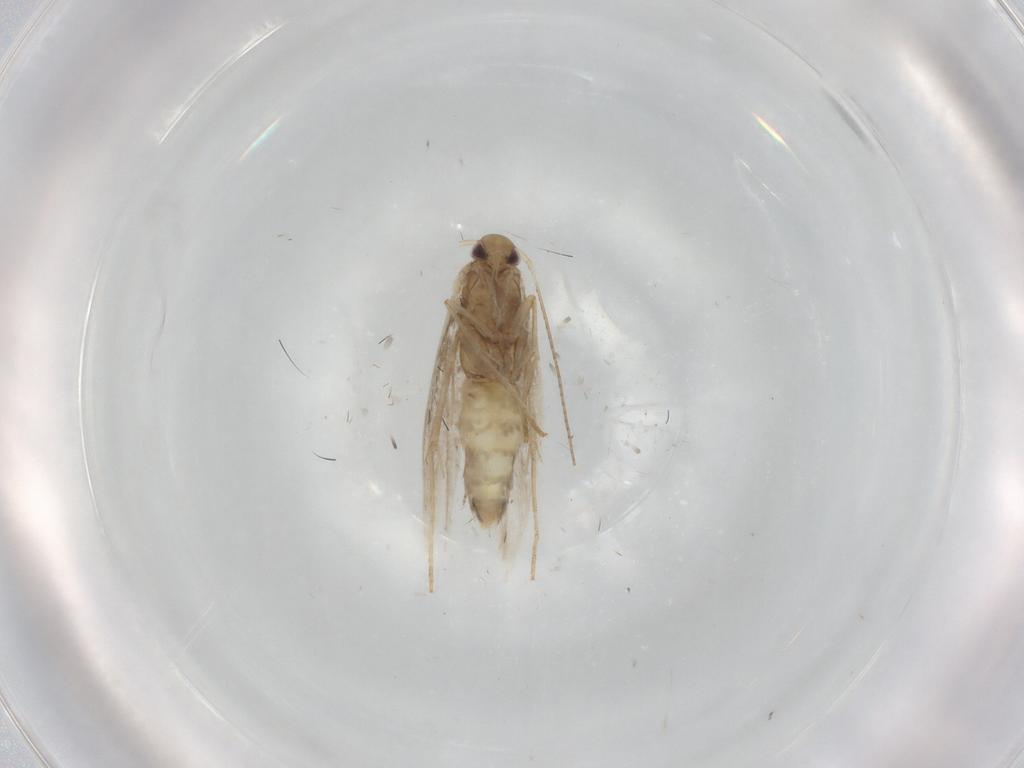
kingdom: Animalia
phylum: Arthropoda
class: Insecta
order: Lepidoptera
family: Gracillariidae
